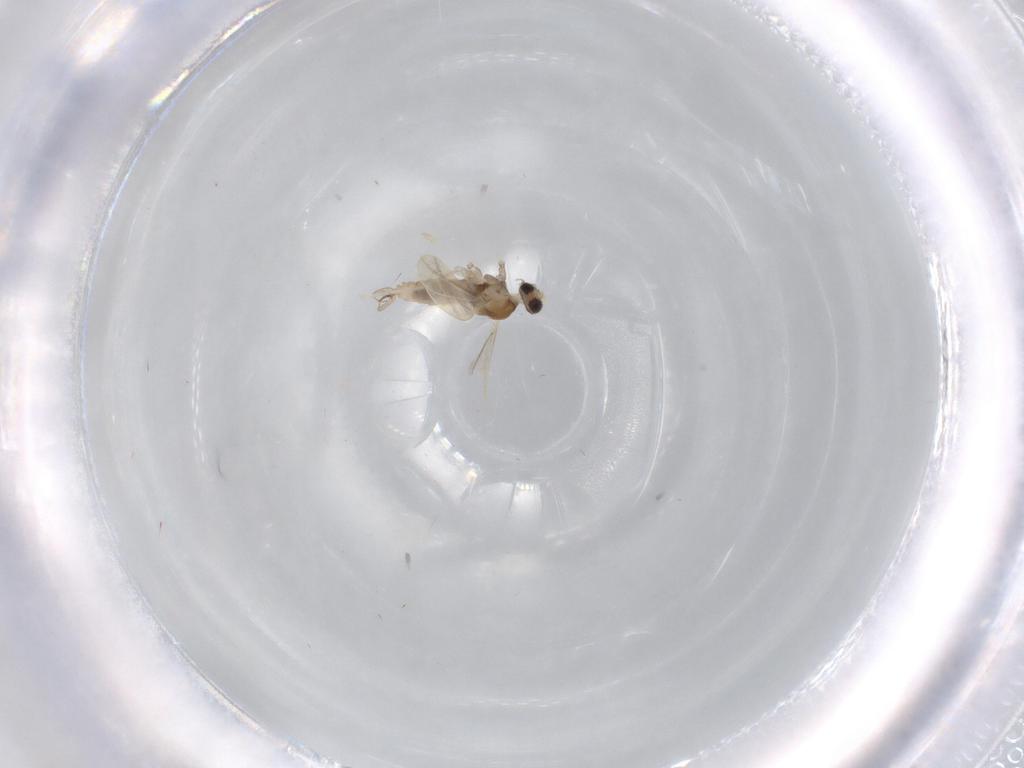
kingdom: Animalia
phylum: Arthropoda
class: Insecta
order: Diptera
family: Cecidomyiidae
